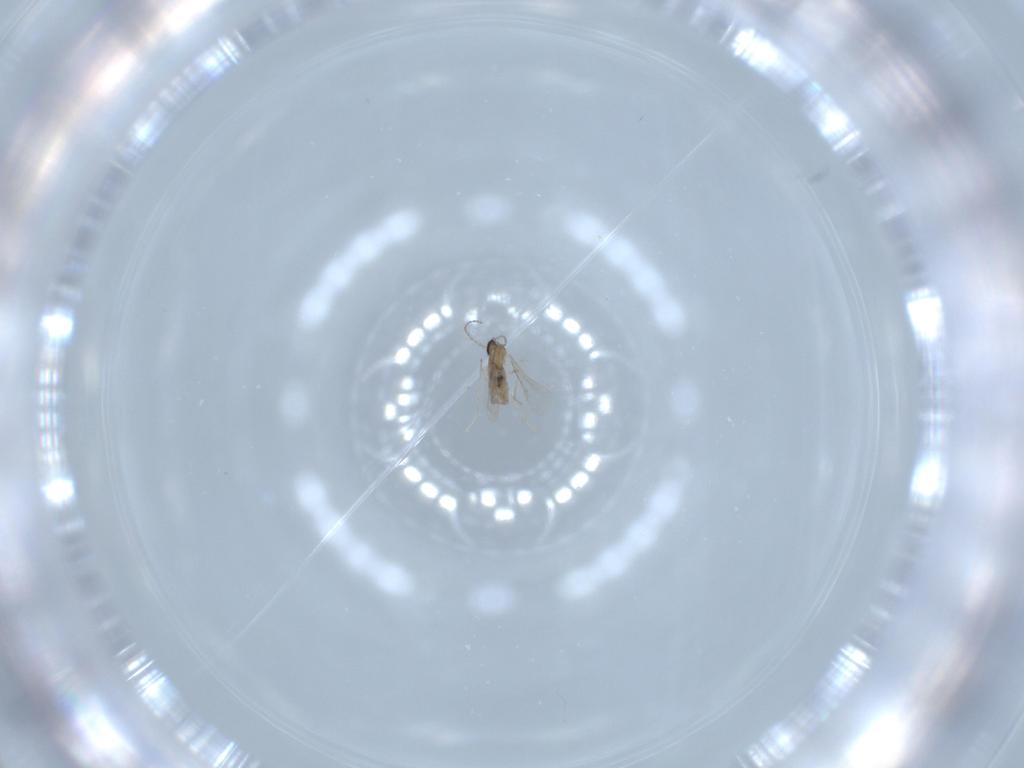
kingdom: Animalia
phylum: Arthropoda
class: Insecta
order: Diptera
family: Cecidomyiidae
